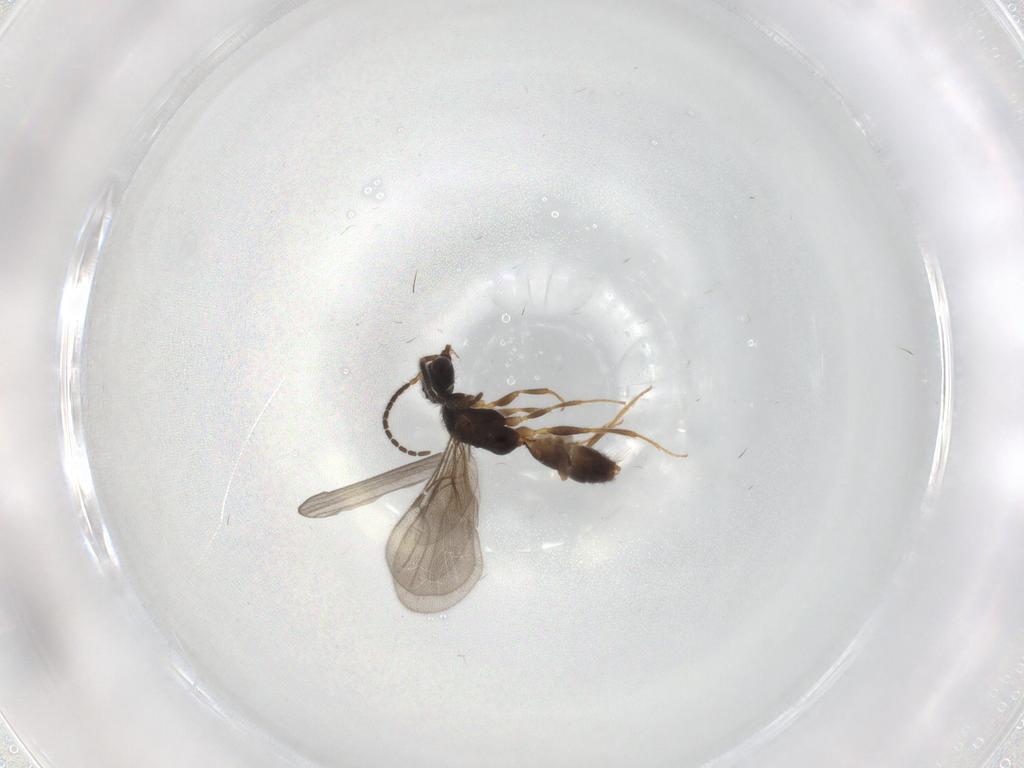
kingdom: Animalia
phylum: Arthropoda
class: Insecta
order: Hymenoptera
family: Bethylidae
